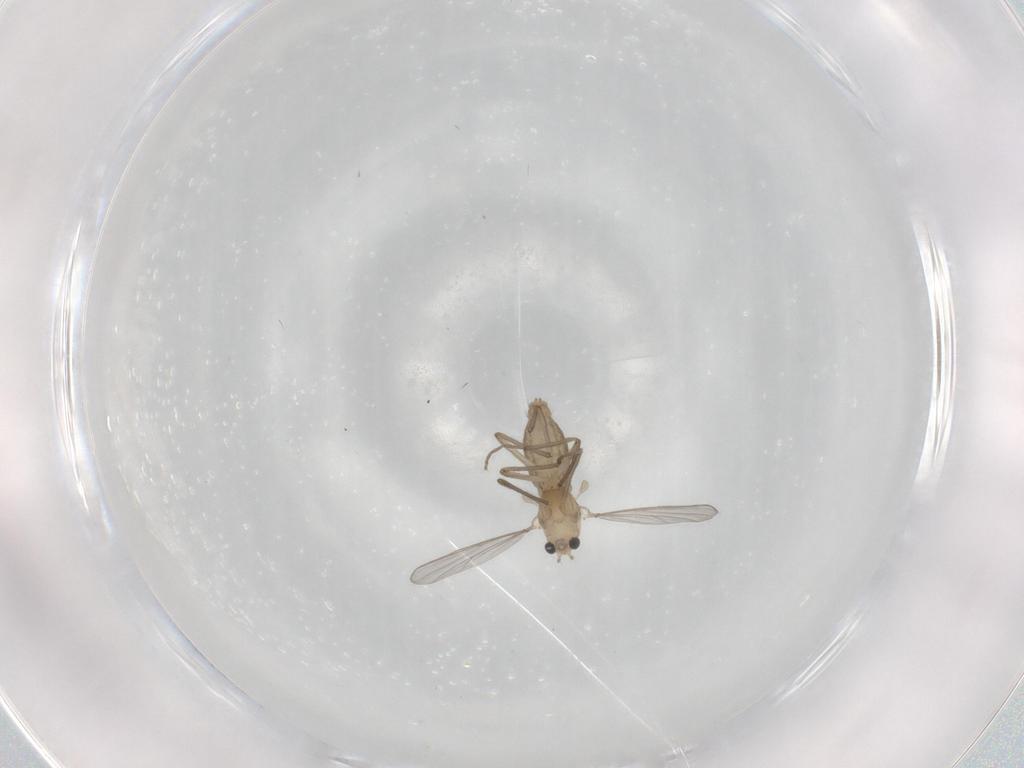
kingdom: Animalia
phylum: Arthropoda
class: Insecta
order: Diptera
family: Chironomidae
